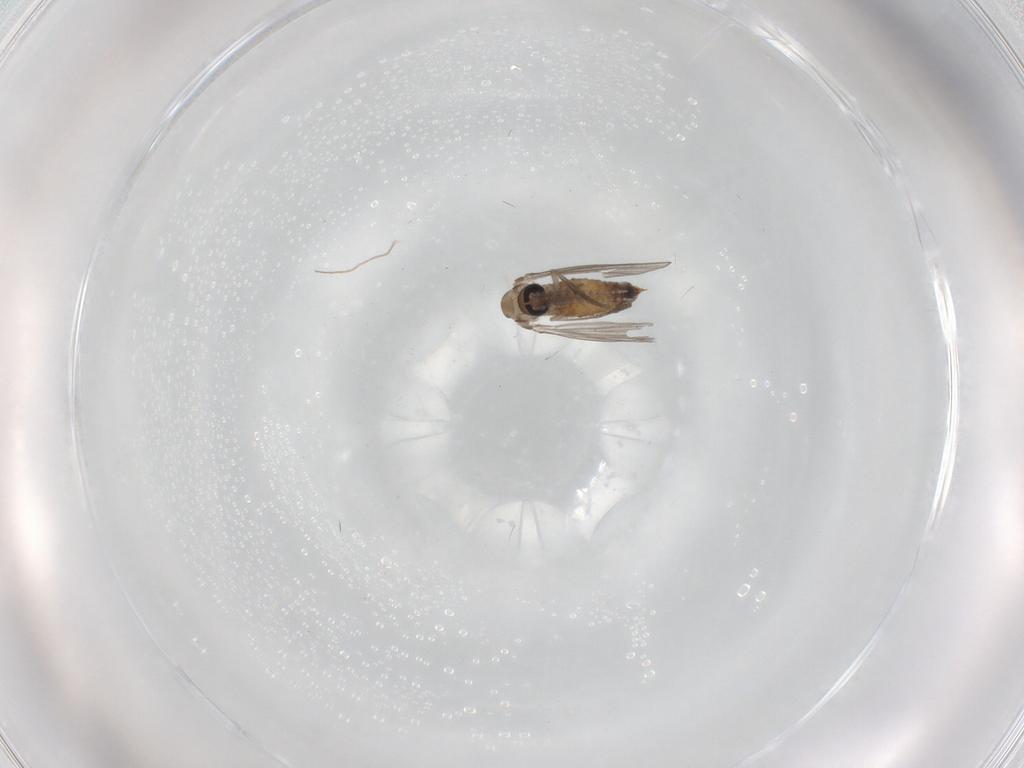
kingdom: Animalia
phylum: Arthropoda
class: Insecta
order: Diptera
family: Psychodidae
